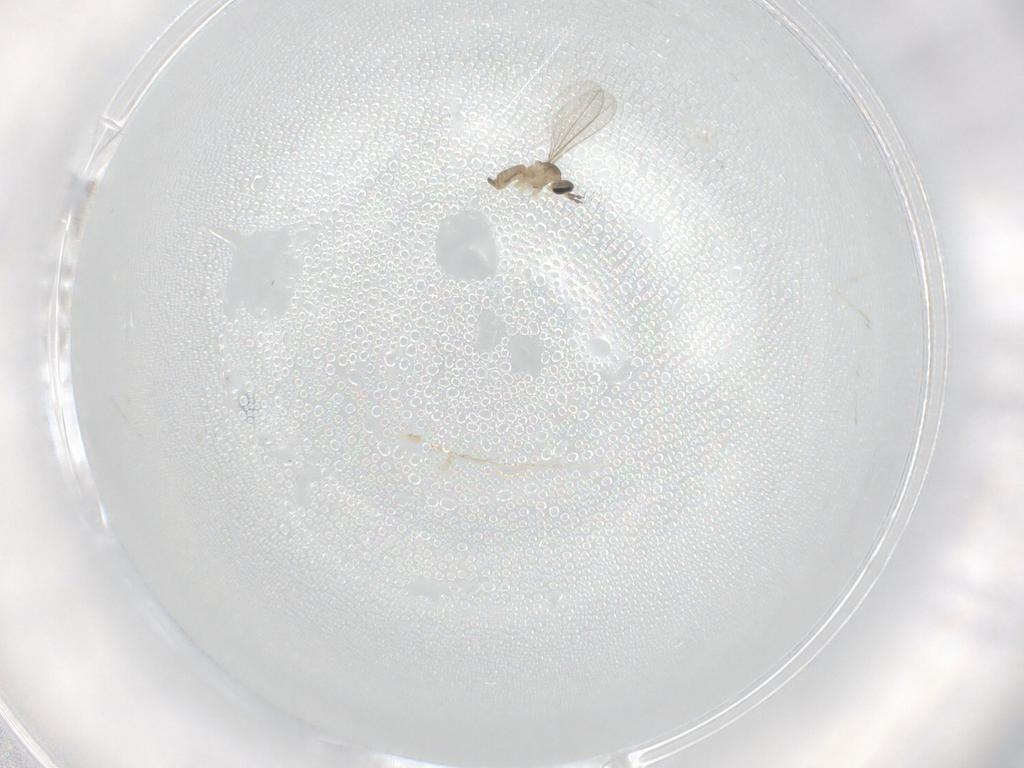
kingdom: Animalia
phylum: Arthropoda
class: Insecta
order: Diptera
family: Cecidomyiidae
